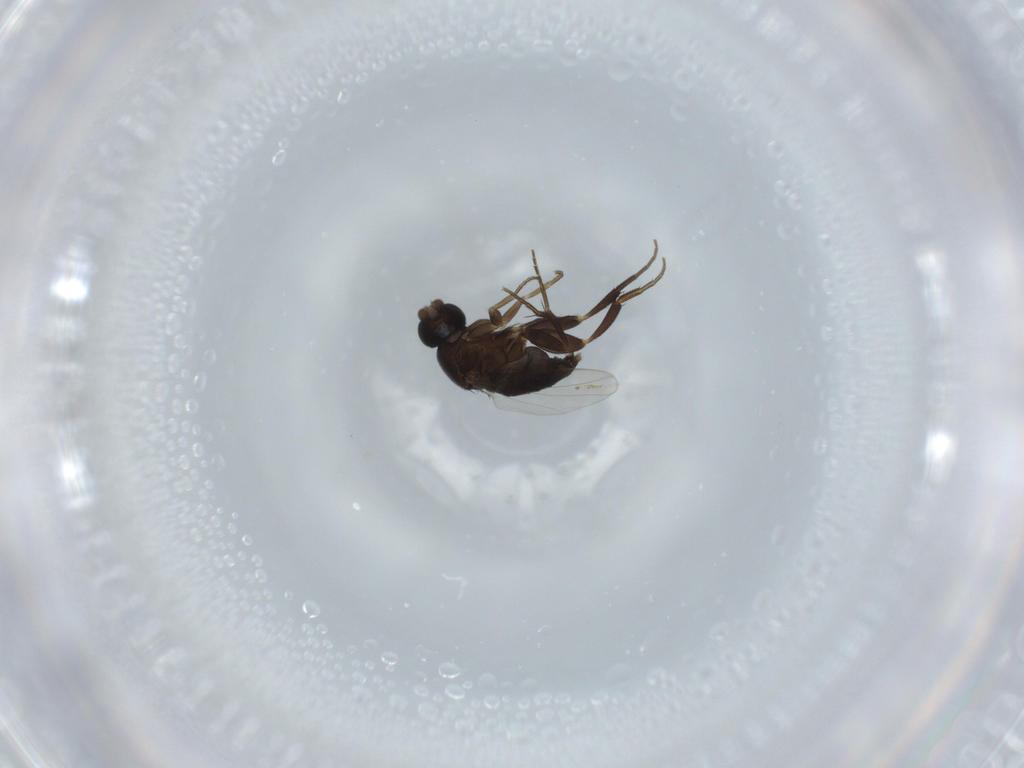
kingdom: Animalia
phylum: Arthropoda
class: Insecta
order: Diptera
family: Phoridae
